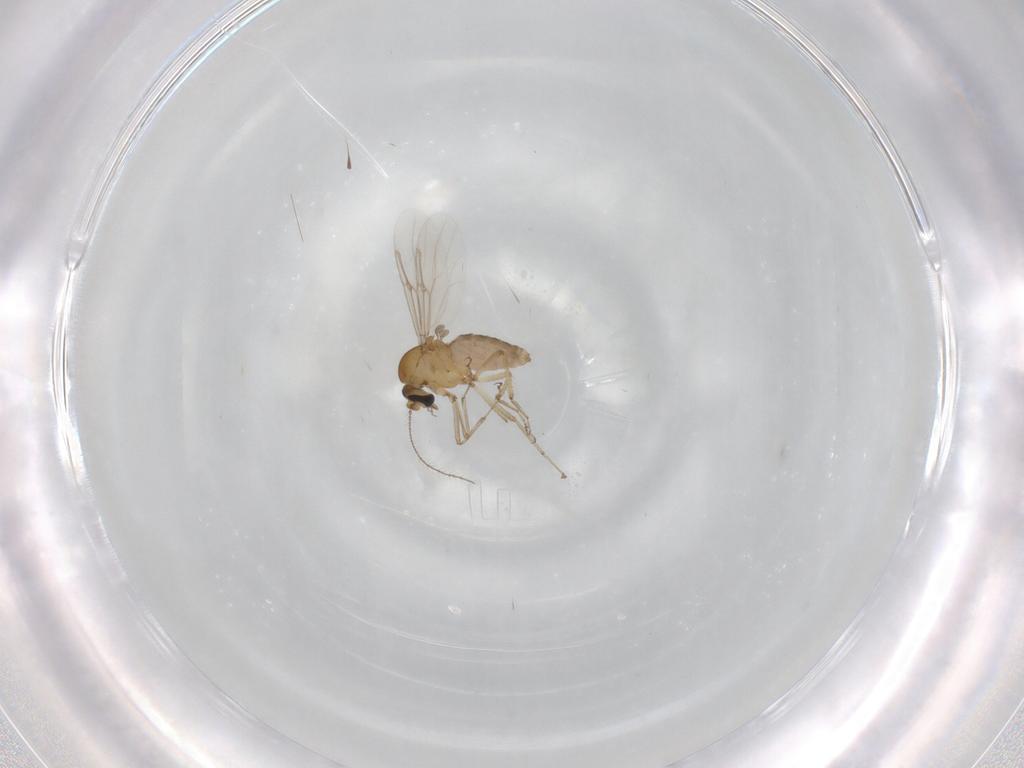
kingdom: Animalia
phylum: Arthropoda
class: Insecta
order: Diptera
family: Ceratopogonidae
